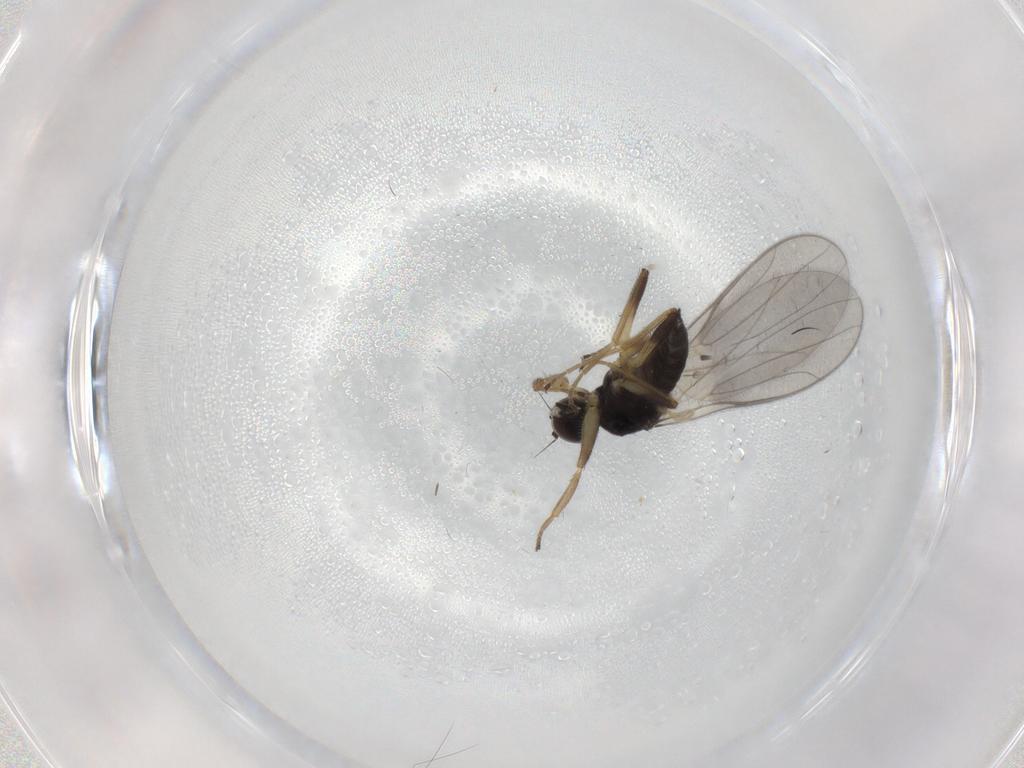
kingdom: Animalia
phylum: Arthropoda
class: Insecta
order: Diptera
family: Hybotidae
